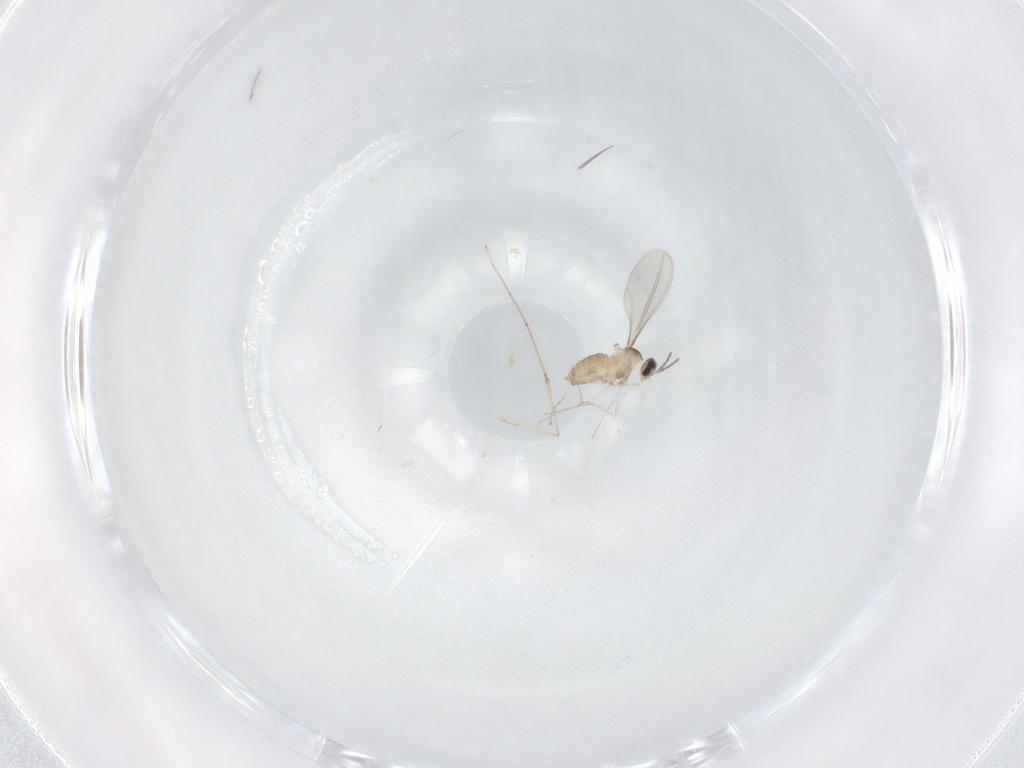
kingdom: Animalia
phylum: Arthropoda
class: Insecta
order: Diptera
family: Cecidomyiidae
